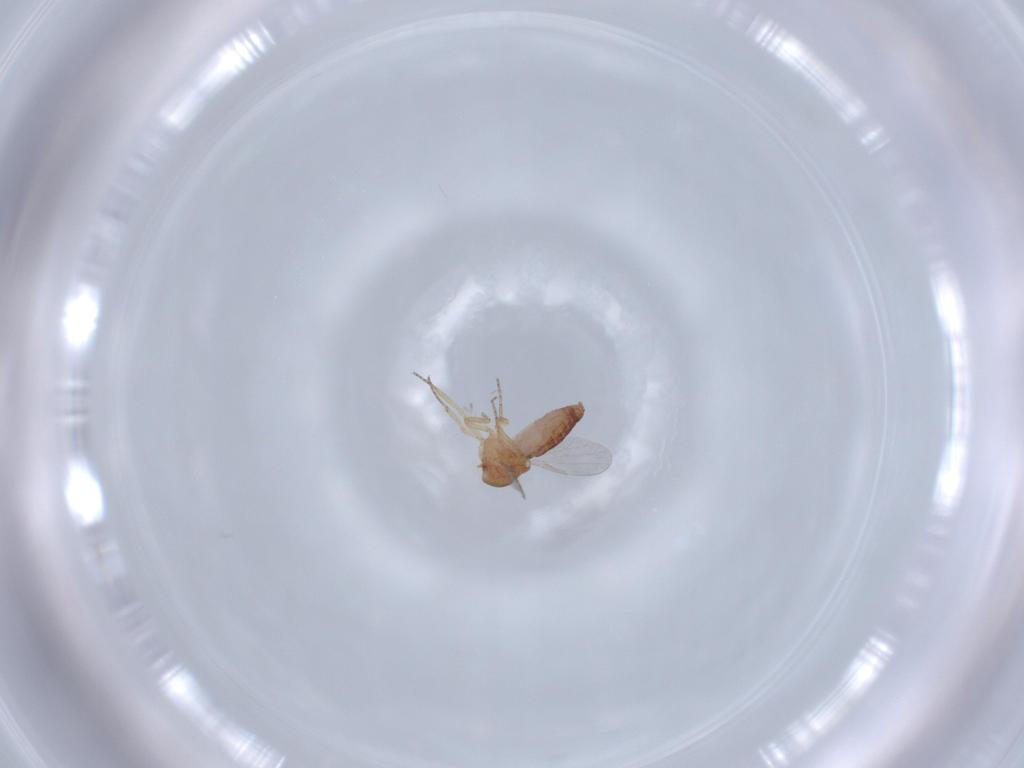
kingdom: Animalia
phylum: Arthropoda
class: Insecta
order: Diptera
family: Ceratopogonidae
